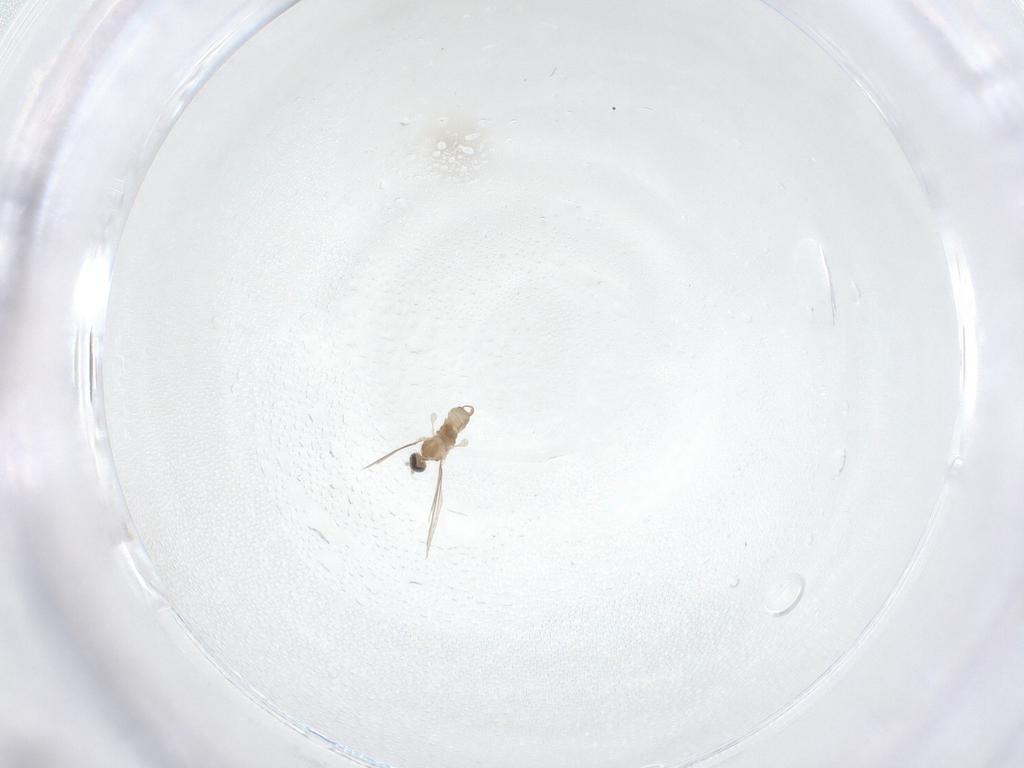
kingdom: Animalia
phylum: Arthropoda
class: Insecta
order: Diptera
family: Cecidomyiidae
